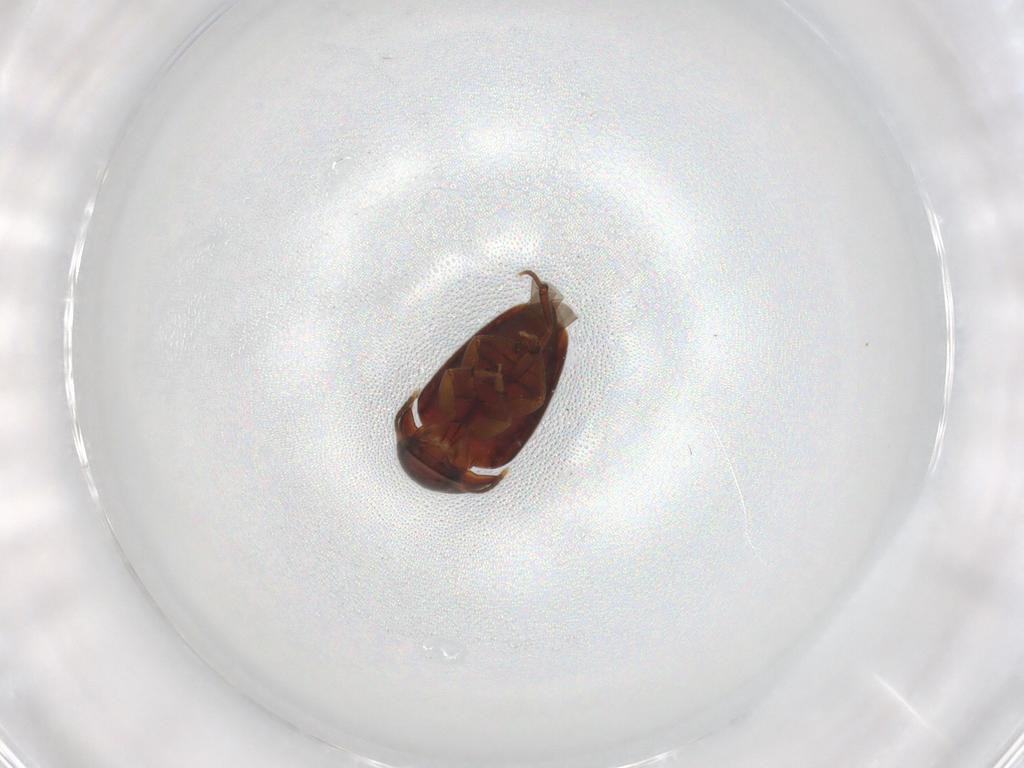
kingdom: Animalia
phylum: Arthropoda
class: Insecta
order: Coleoptera
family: Leiodidae
